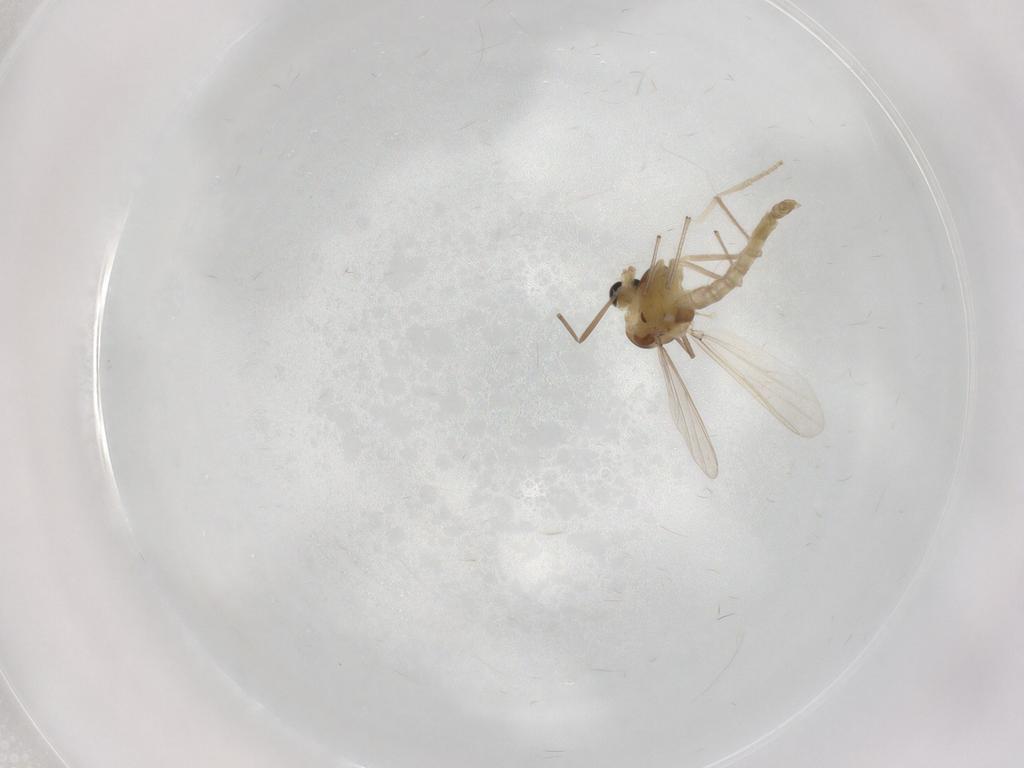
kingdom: Animalia
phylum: Arthropoda
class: Insecta
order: Diptera
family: Chironomidae
